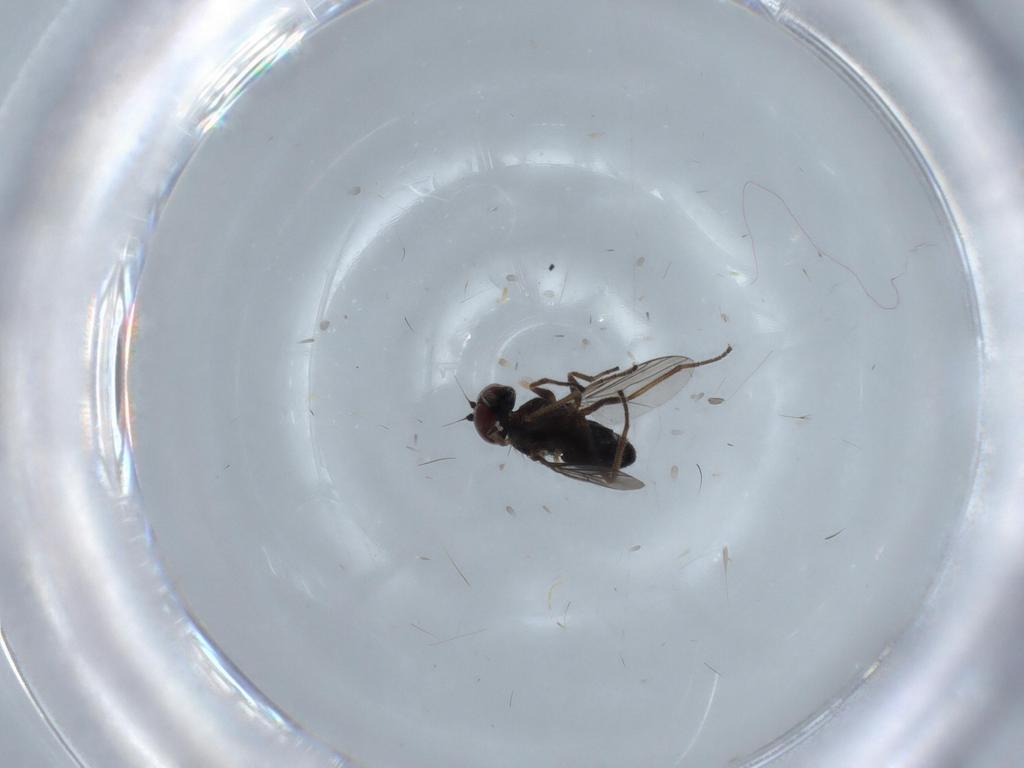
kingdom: Animalia
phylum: Arthropoda
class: Insecta
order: Diptera
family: Dolichopodidae
